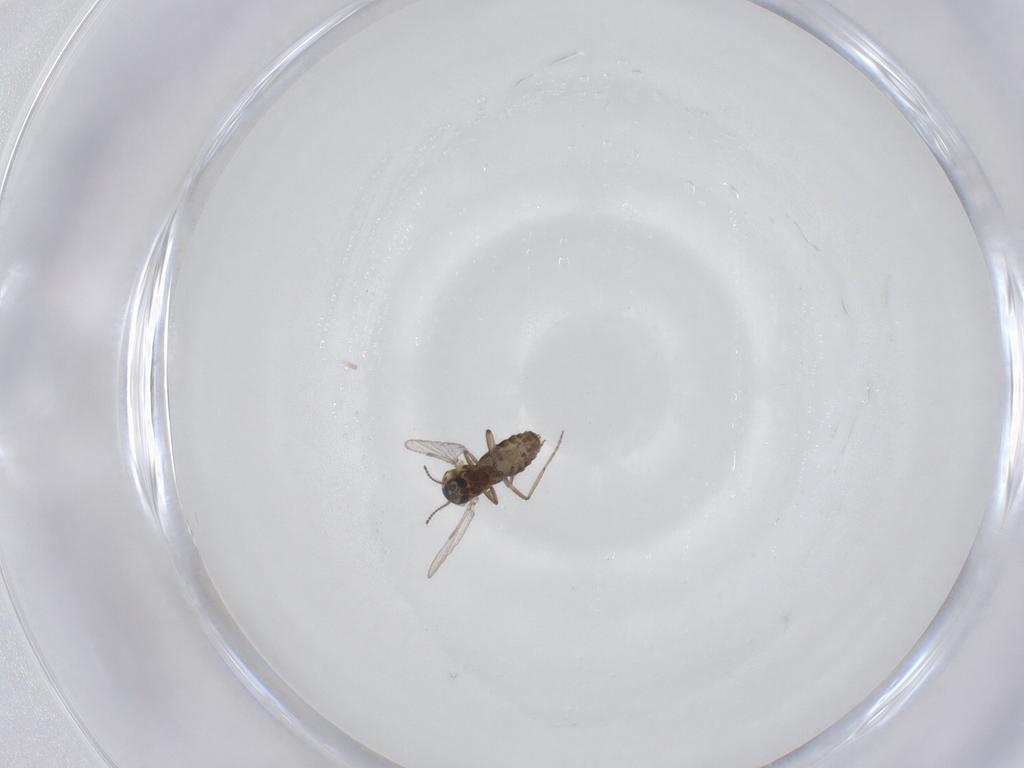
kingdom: Animalia
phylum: Arthropoda
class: Insecta
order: Diptera
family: Ceratopogonidae
